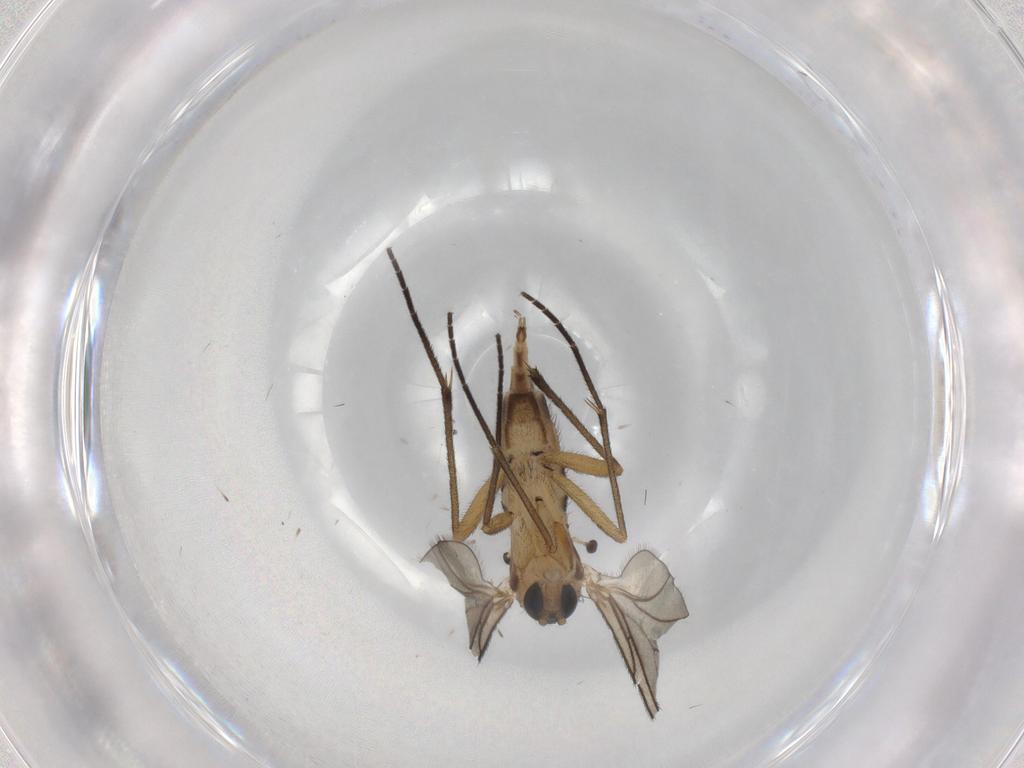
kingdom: Animalia
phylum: Arthropoda
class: Insecta
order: Diptera
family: Sciaridae
